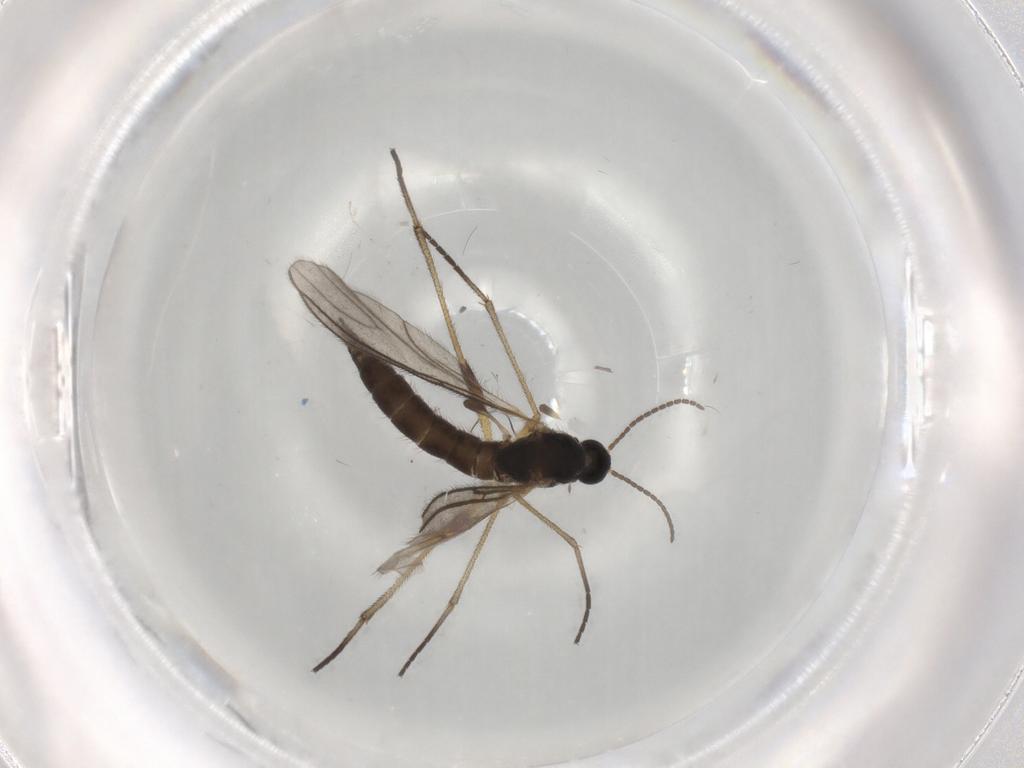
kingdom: Animalia
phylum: Arthropoda
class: Insecta
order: Diptera
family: Sciaridae
